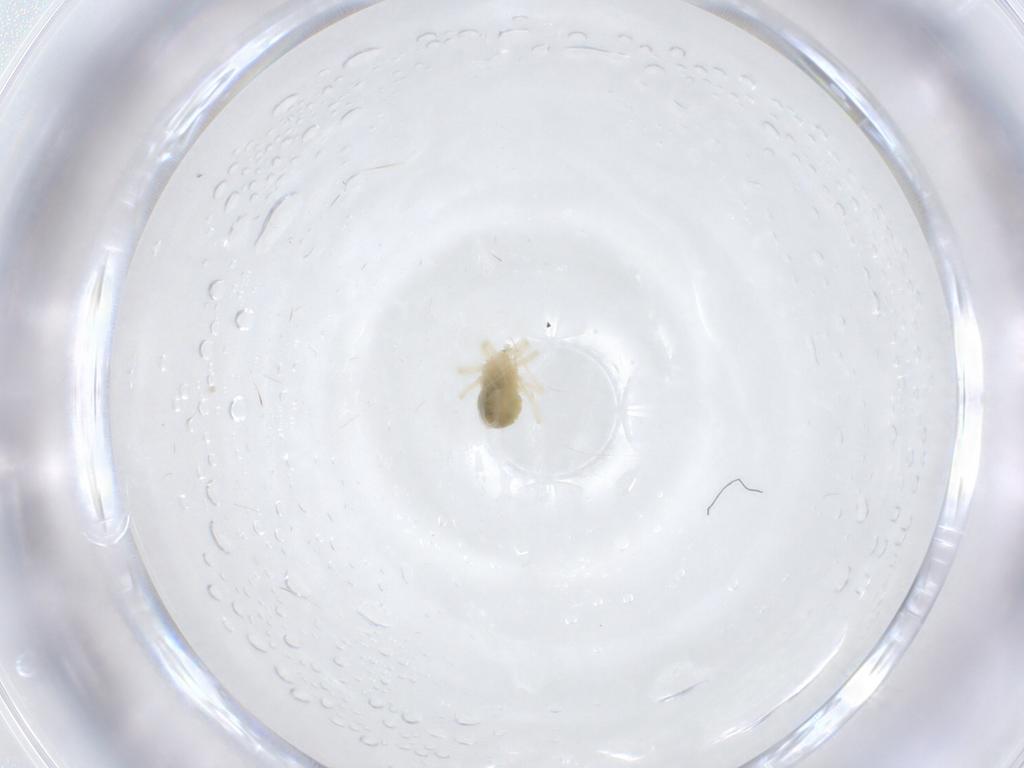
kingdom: Animalia
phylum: Arthropoda
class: Arachnida
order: Trombidiformes
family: Anystidae
